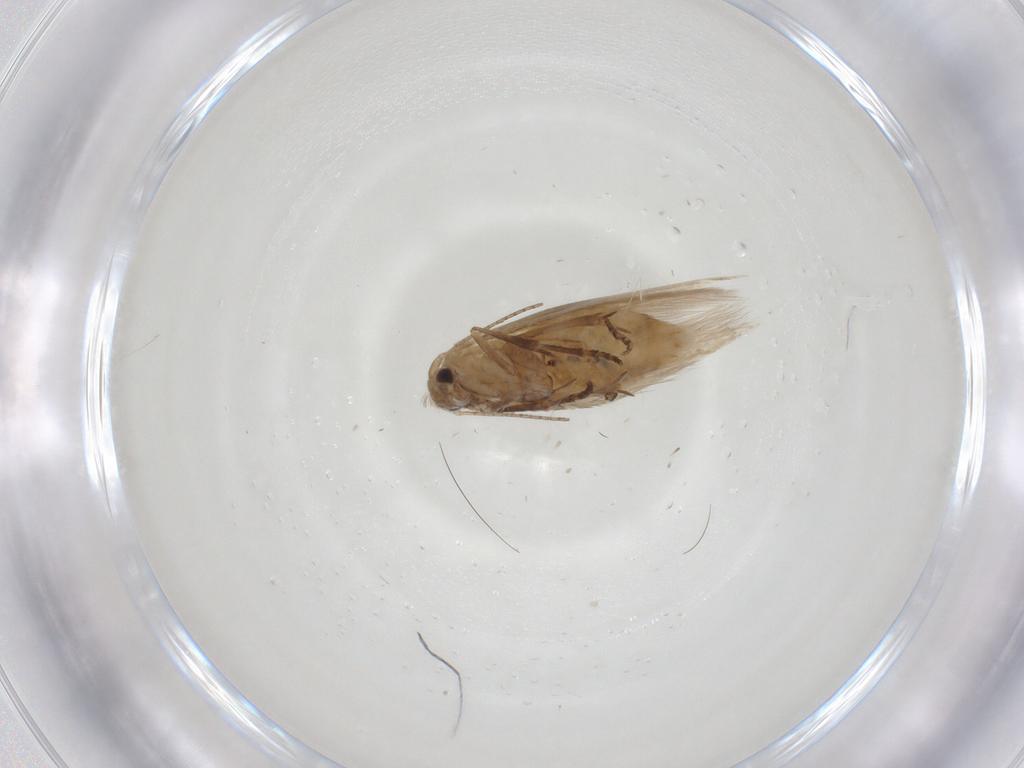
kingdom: Animalia
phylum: Arthropoda
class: Insecta
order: Lepidoptera
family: Bucculatricidae
